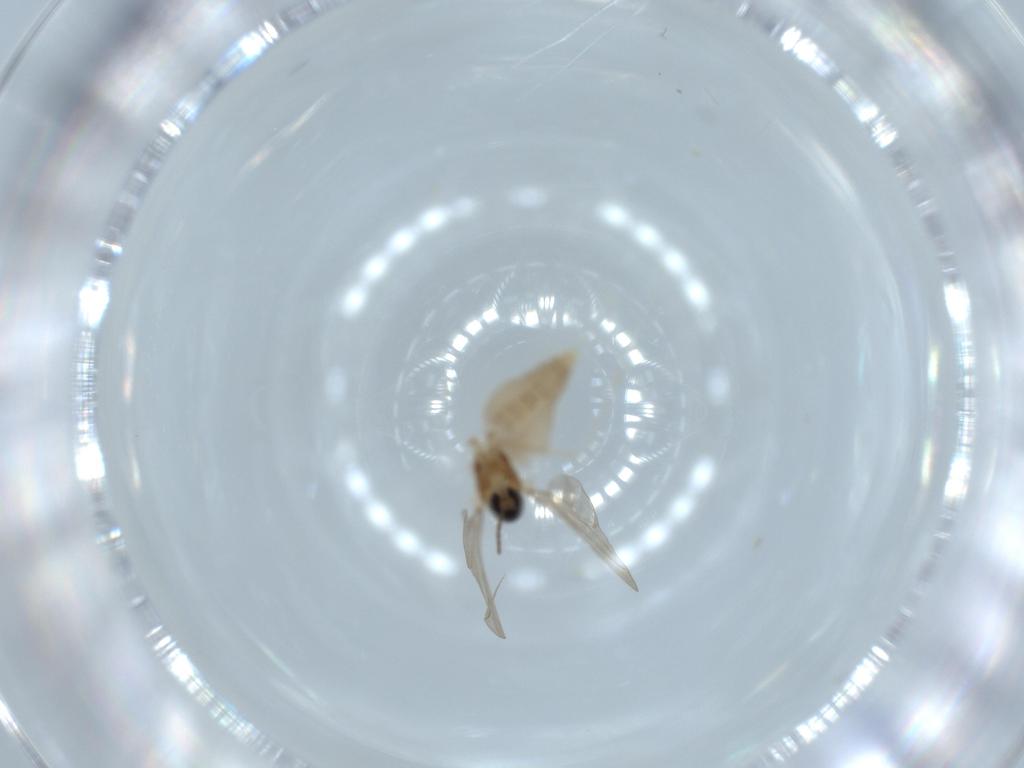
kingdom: Animalia
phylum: Arthropoda
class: Insecta
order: Diptera
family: Cecidomyiidae
